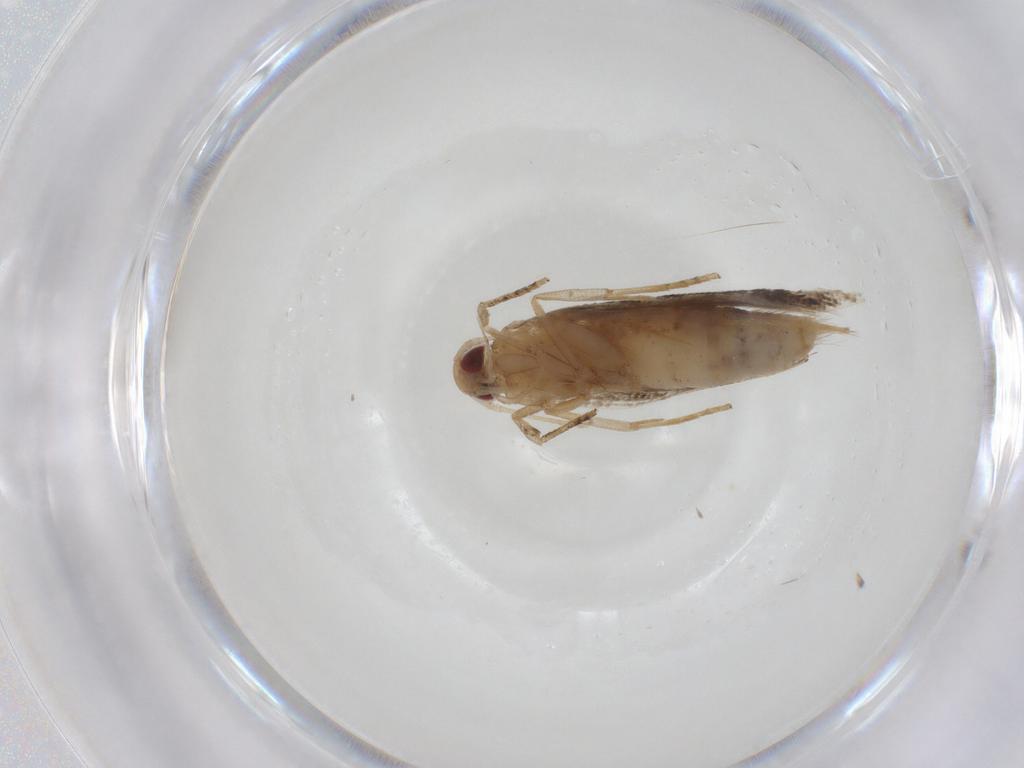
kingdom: Animalia
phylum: Arthropoda
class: Insecta
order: Lepidoptera
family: Cosmopterigidae
